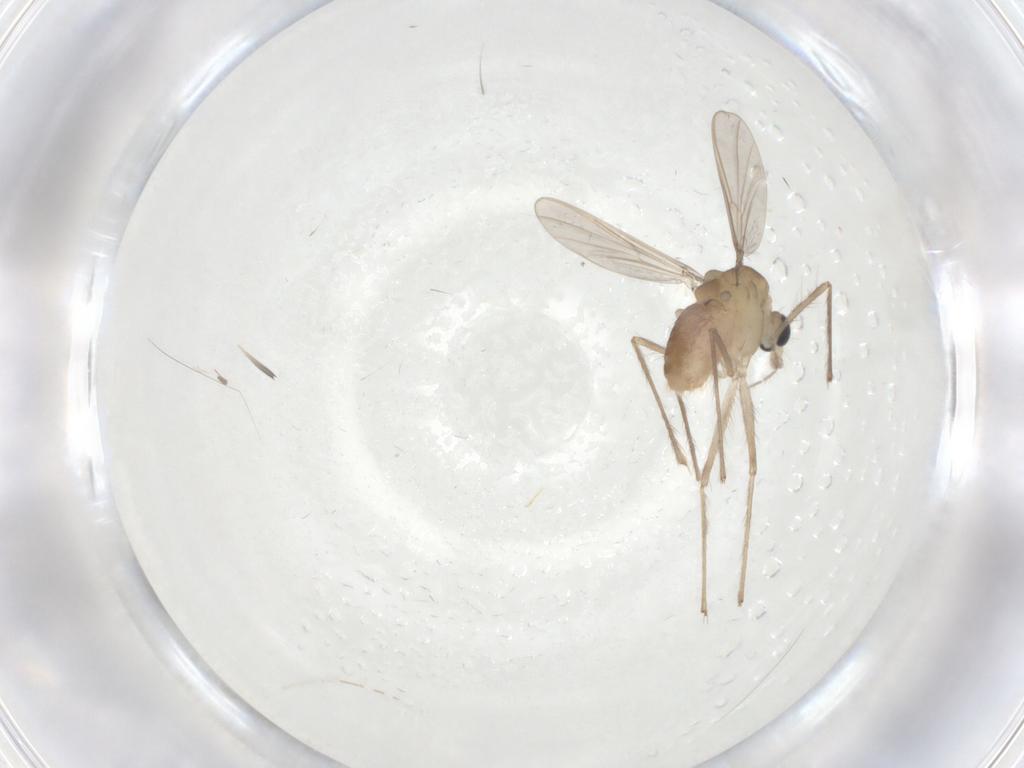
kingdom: Animalia
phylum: Arthropoda
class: Insecta
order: Diptera
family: Chironomidae
